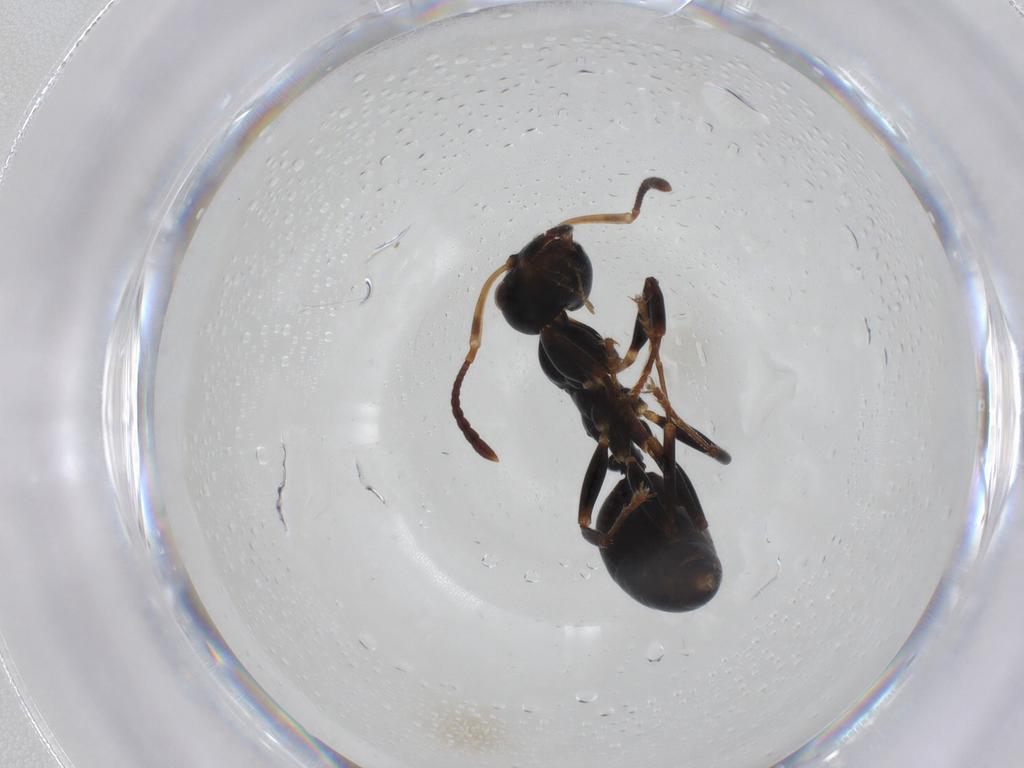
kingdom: Animalia
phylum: Arthropoda
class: Insecta
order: Hymenoptera
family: Formicidae
